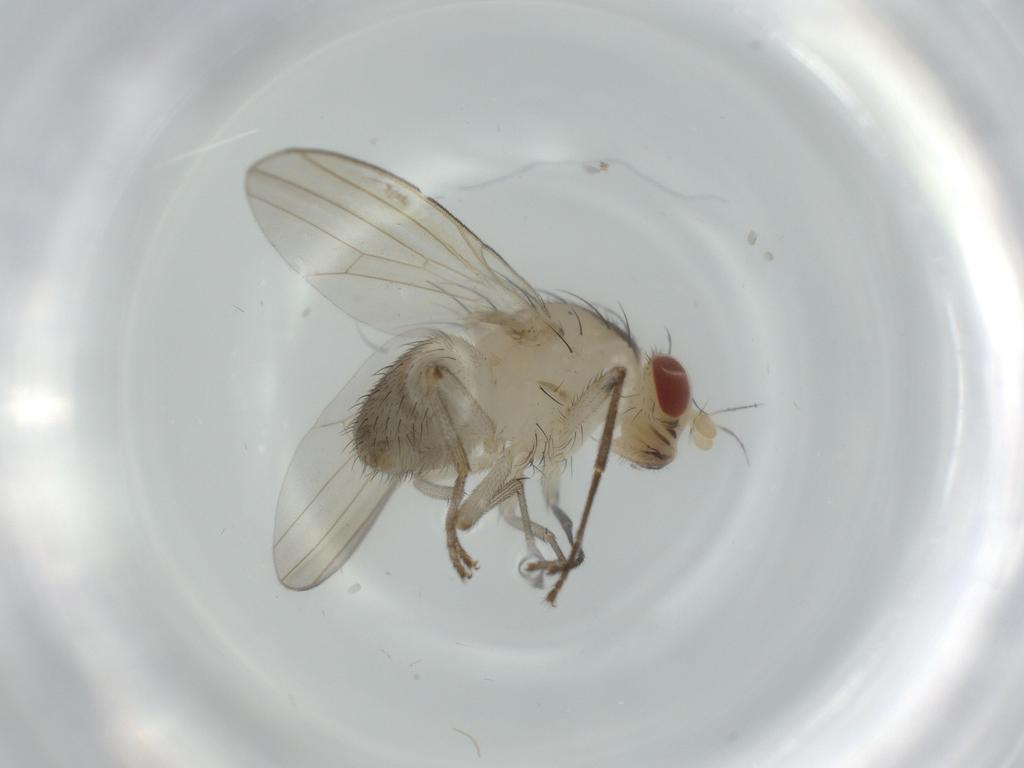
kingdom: Animalia
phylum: Arthropoda
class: Insecta
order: Diptera
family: Lauxaniidae
